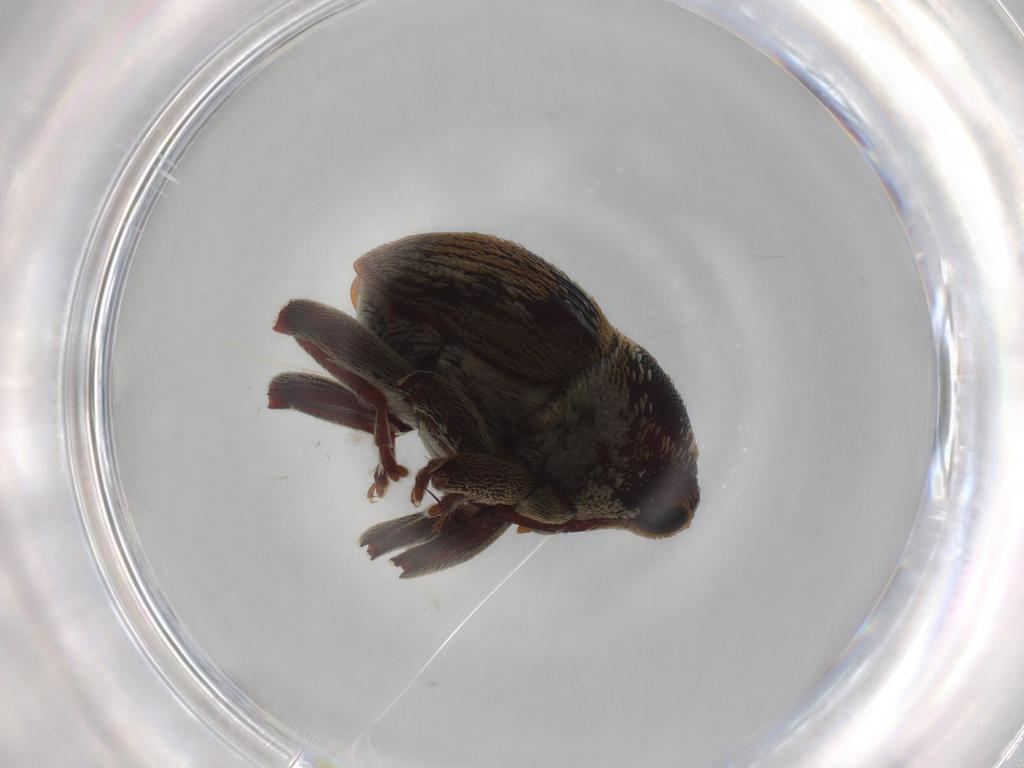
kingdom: Animalia
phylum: Arthropoda
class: Insecta
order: Coleoptera
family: Curculionidae
